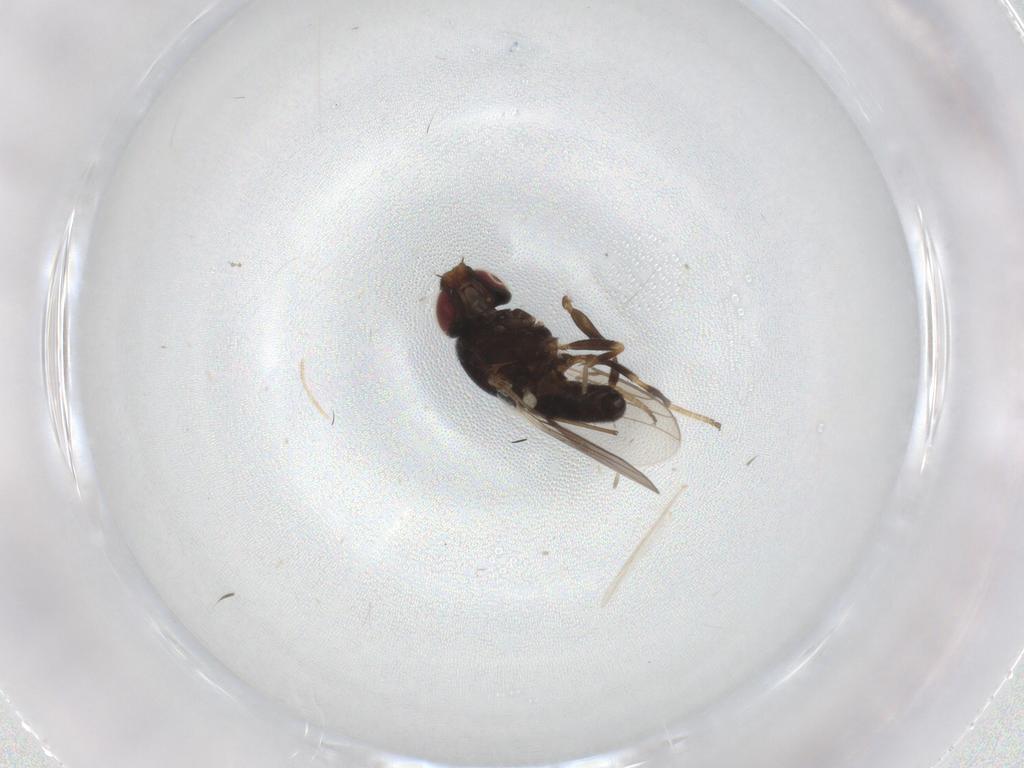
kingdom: Animalia
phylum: Arthropoda
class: Insecta
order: Diptera
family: Chloropidae
